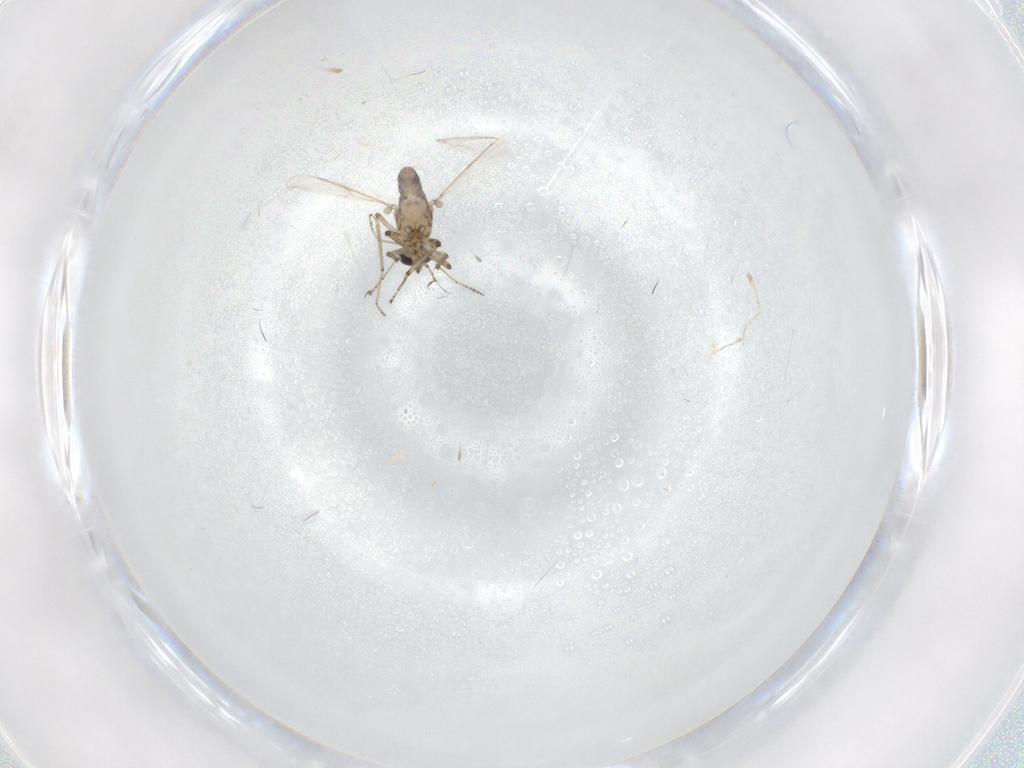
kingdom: Animalia
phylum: Arthropoda
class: Insecta
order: Diptera
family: Ceratopogonidae
